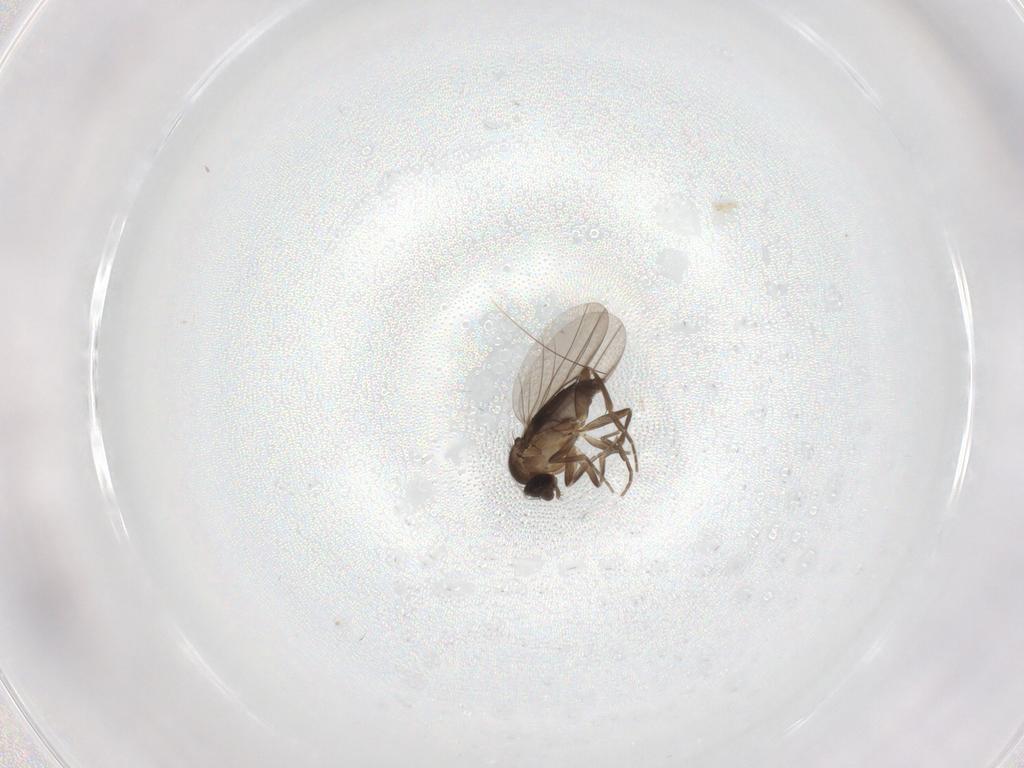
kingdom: Animalia
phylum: Arthropoda
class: Insecta
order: Diptera
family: Phoridae
